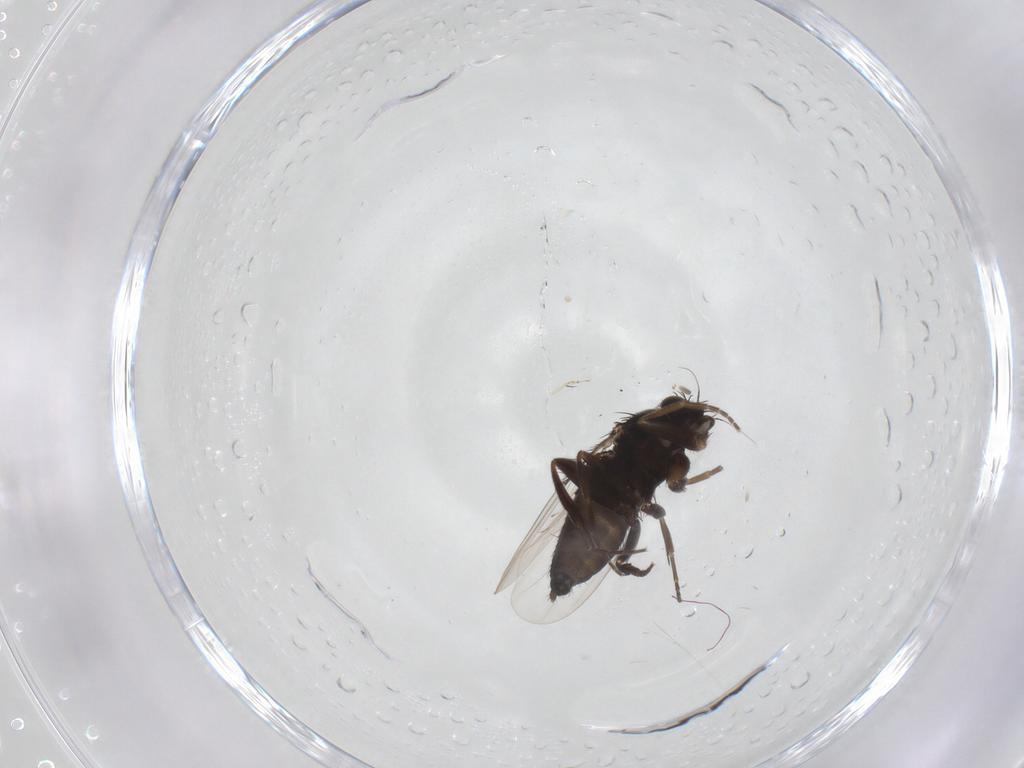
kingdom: Animalia
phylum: Arthropoda
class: Insecta
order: Diptera
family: Phoridae
